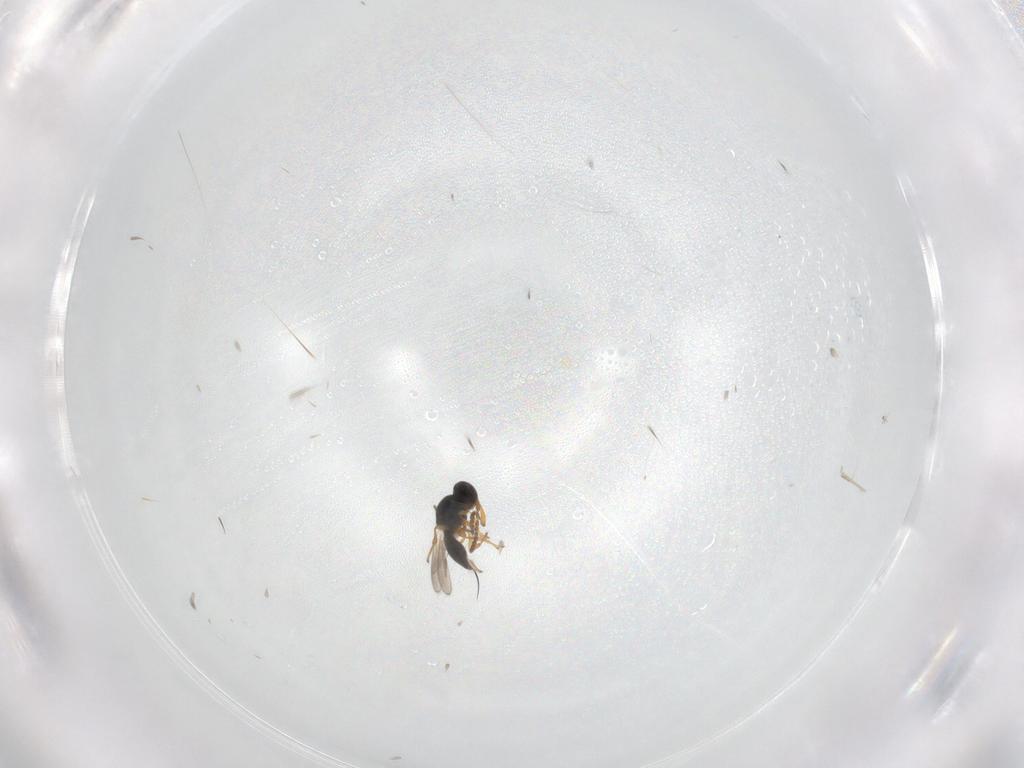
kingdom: Animalia
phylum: Arthropoda
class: Insecta
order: Hymenoptera
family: Platygastridae
